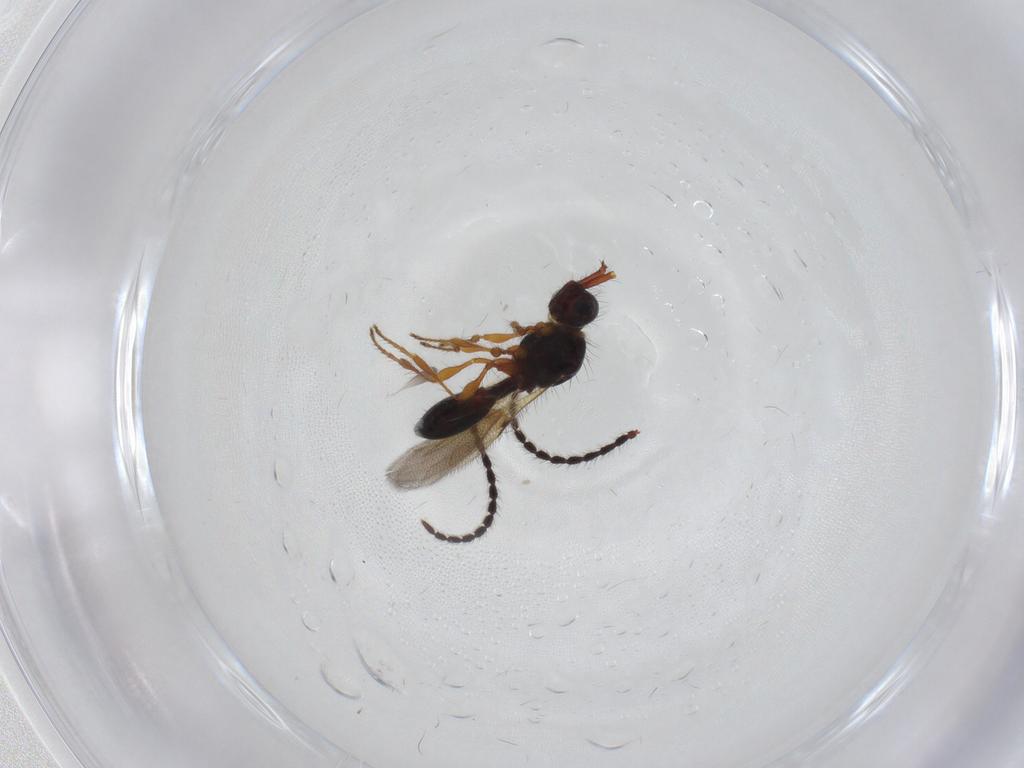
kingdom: Animalia
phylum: Arthropoda
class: Insecta
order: Hymenoptera
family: Diapriidae
